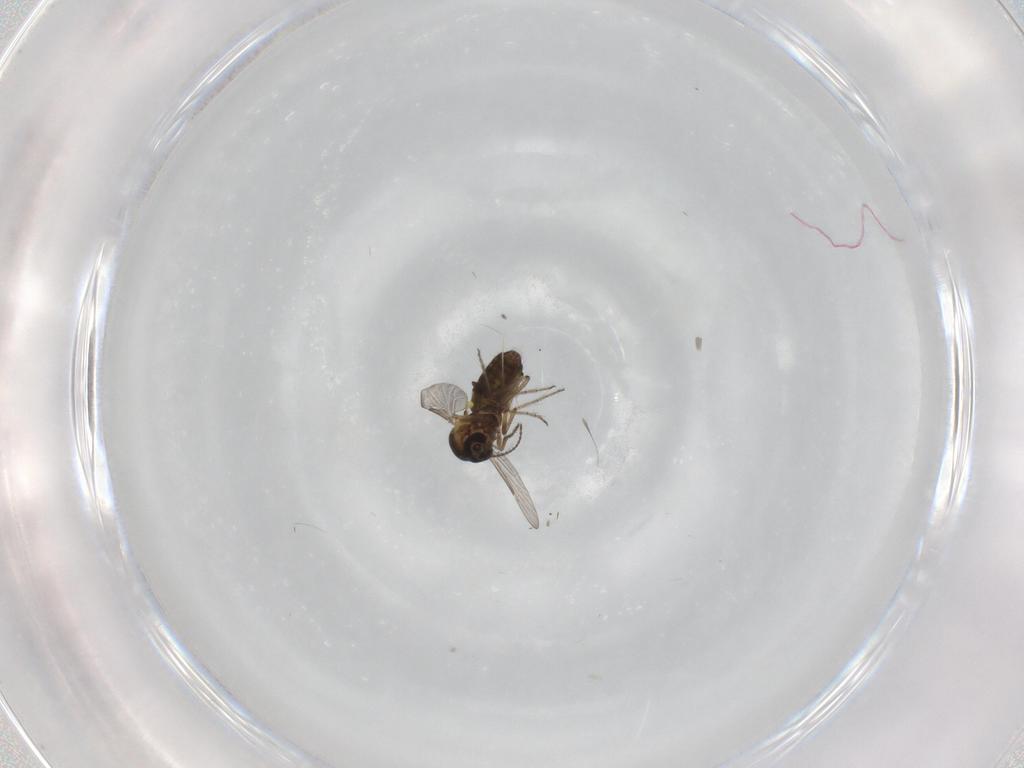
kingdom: Animalia
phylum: Arthropoda
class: Insecta
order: Diptera
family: Ceratopogonidae
